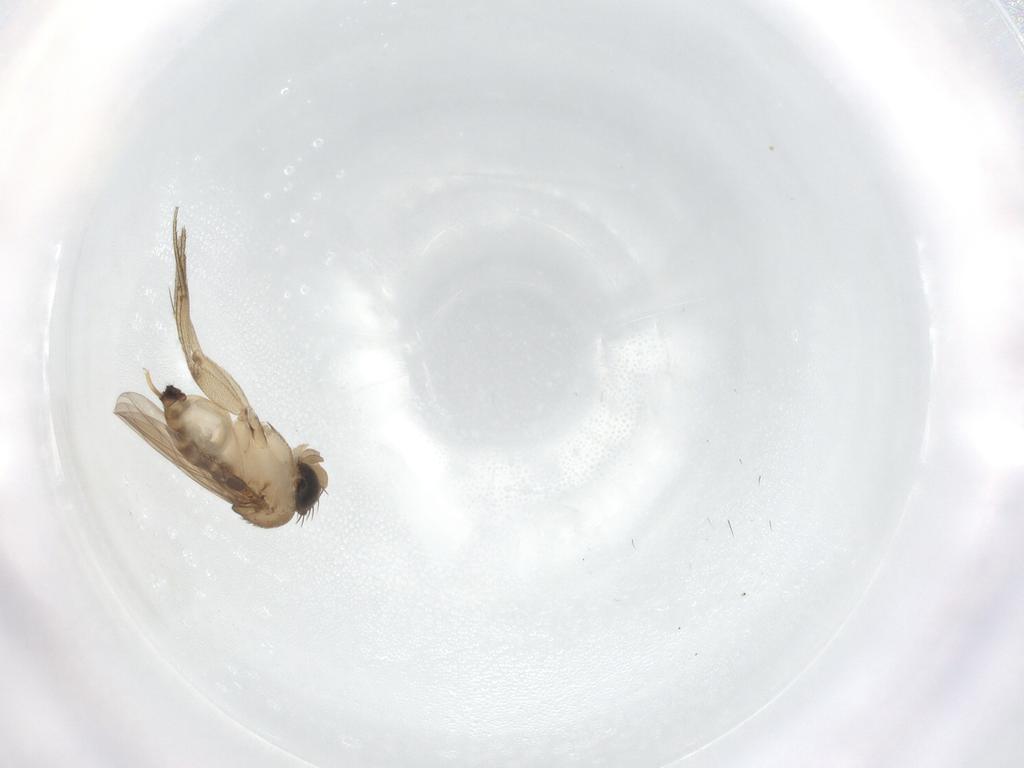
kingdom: Animalia
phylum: Arthropoda
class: Insecta
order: Diptera
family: Phoridae
